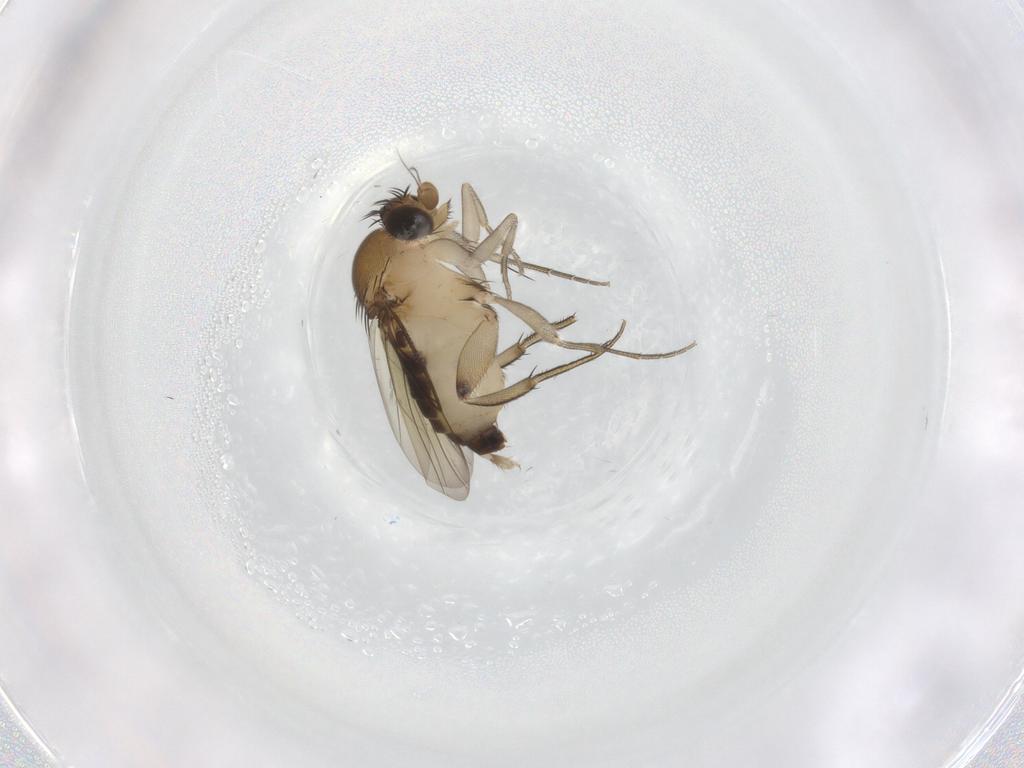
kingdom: Animalia
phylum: Arthropoda
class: Insecta
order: Diptera
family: Phoridae
